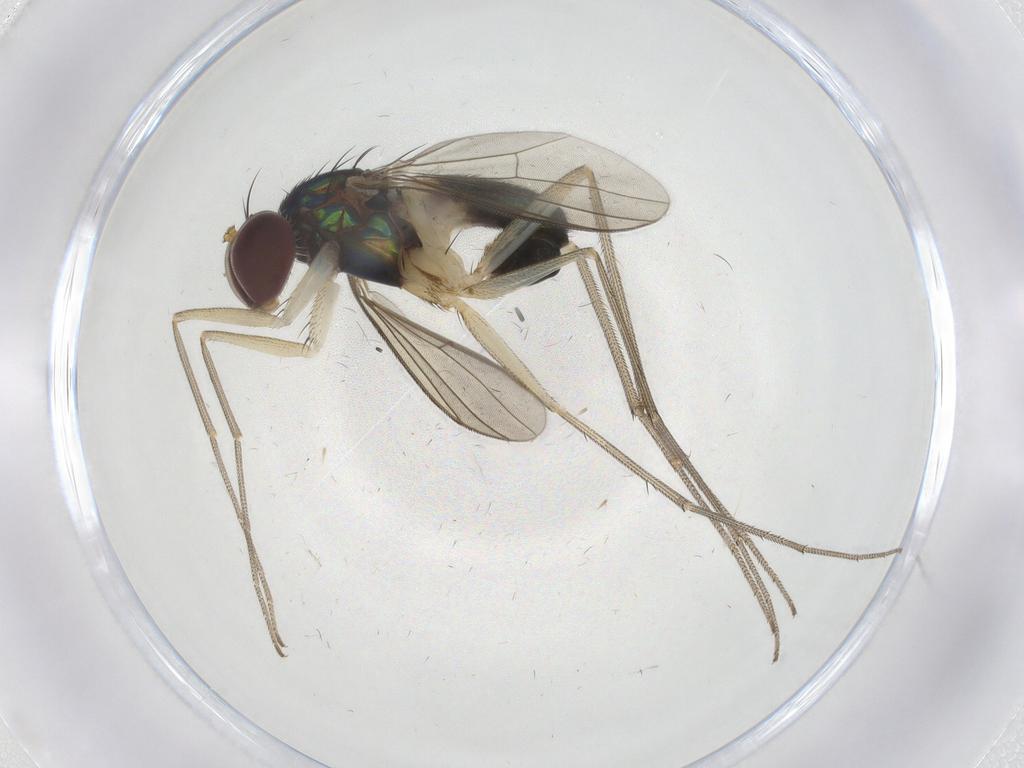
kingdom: Animalia
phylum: Arthropoda
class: Insecta
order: Diptera
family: Dolichopodidae
